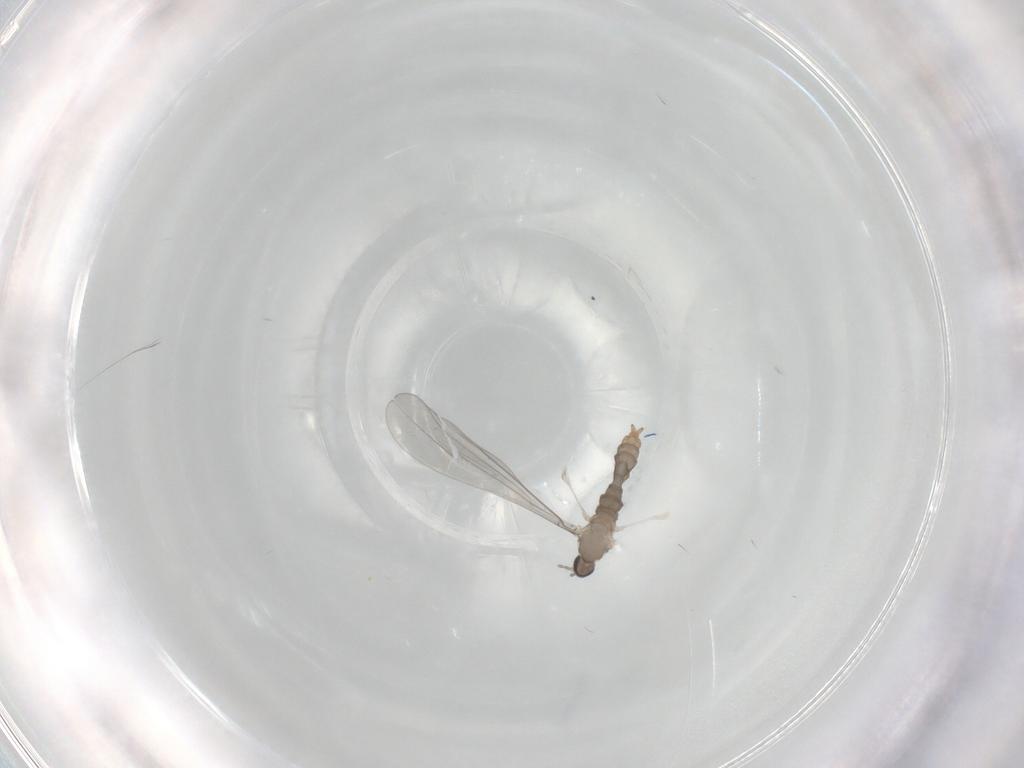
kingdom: Animalia
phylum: Arthropoda
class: Insecta
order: Diptera
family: Cecidomyiidae
